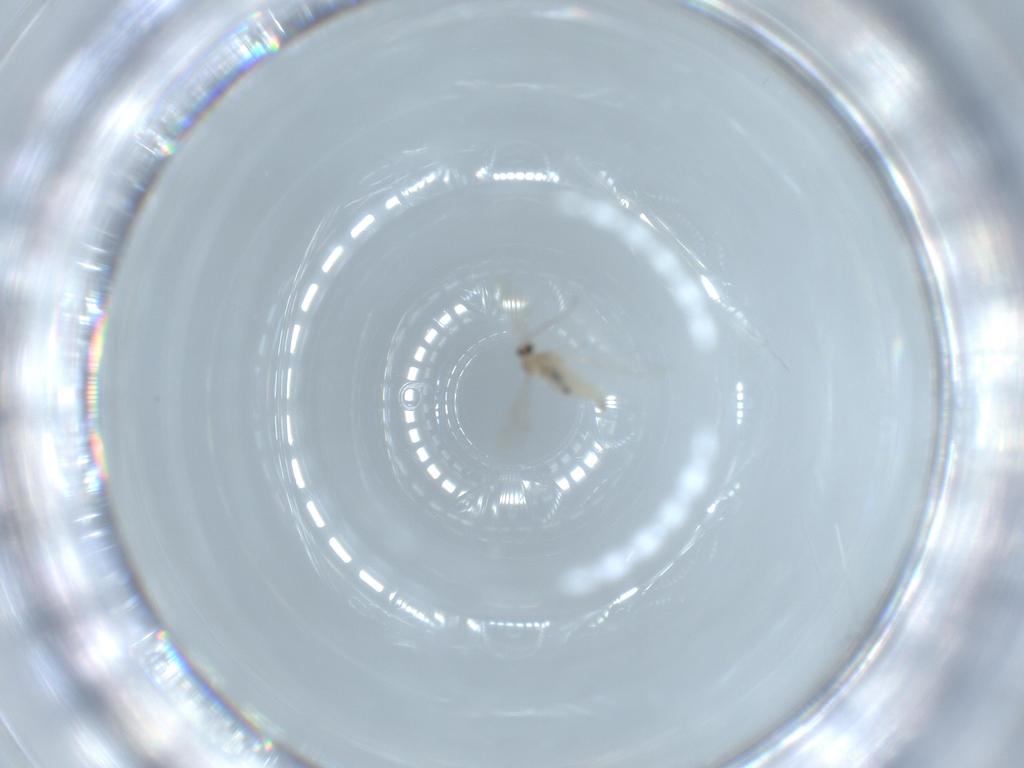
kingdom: Animalia
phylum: Arthropoda
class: Insecta
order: Diptera
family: Cecidomyiidae
